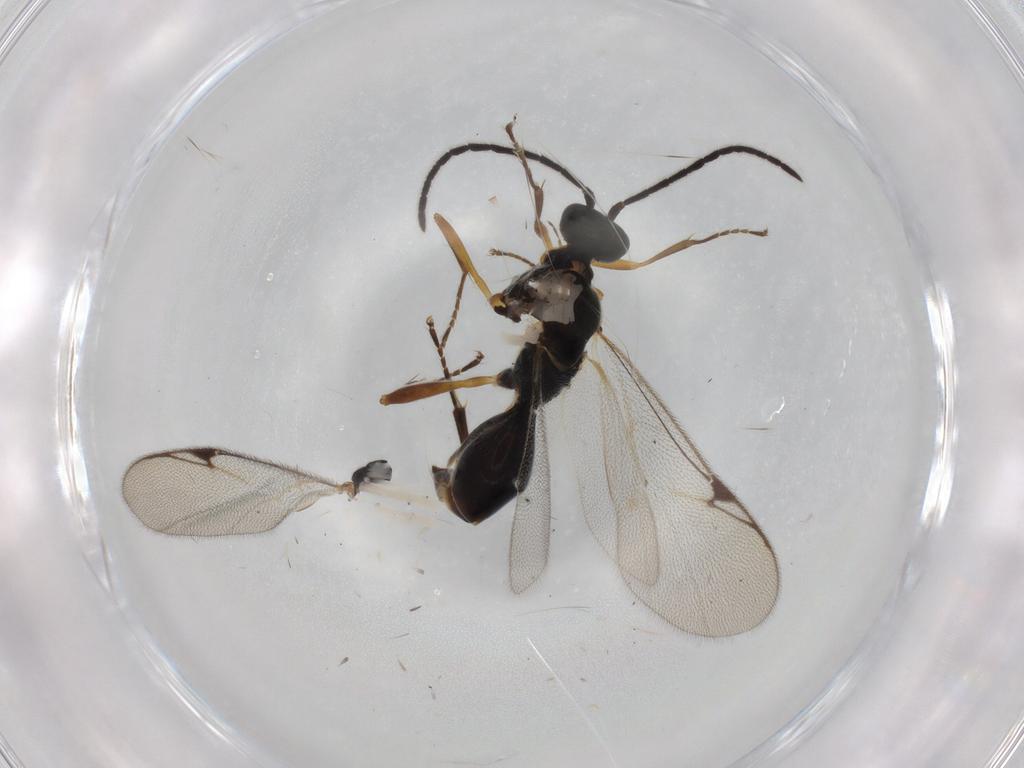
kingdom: Animalia
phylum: Arthropoda
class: Insecta
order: Hymenoptera
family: Proctotrupidae
